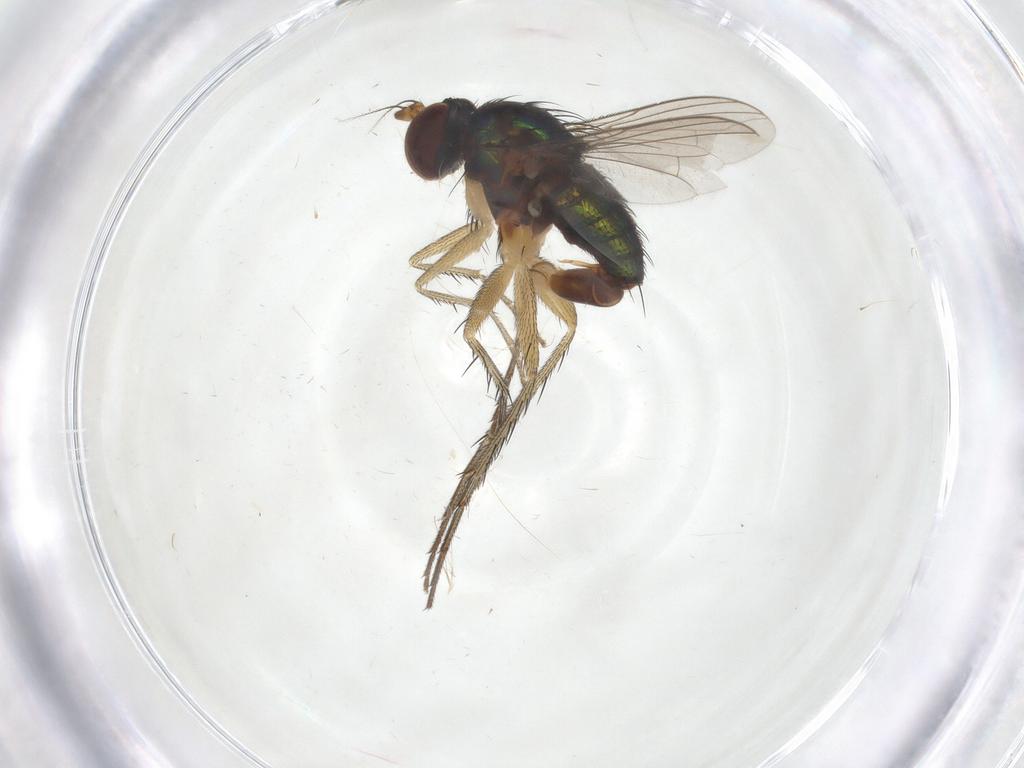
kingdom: Animalia
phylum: Arthropoda
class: Insecta
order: Diptera
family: Dolichopodidae
